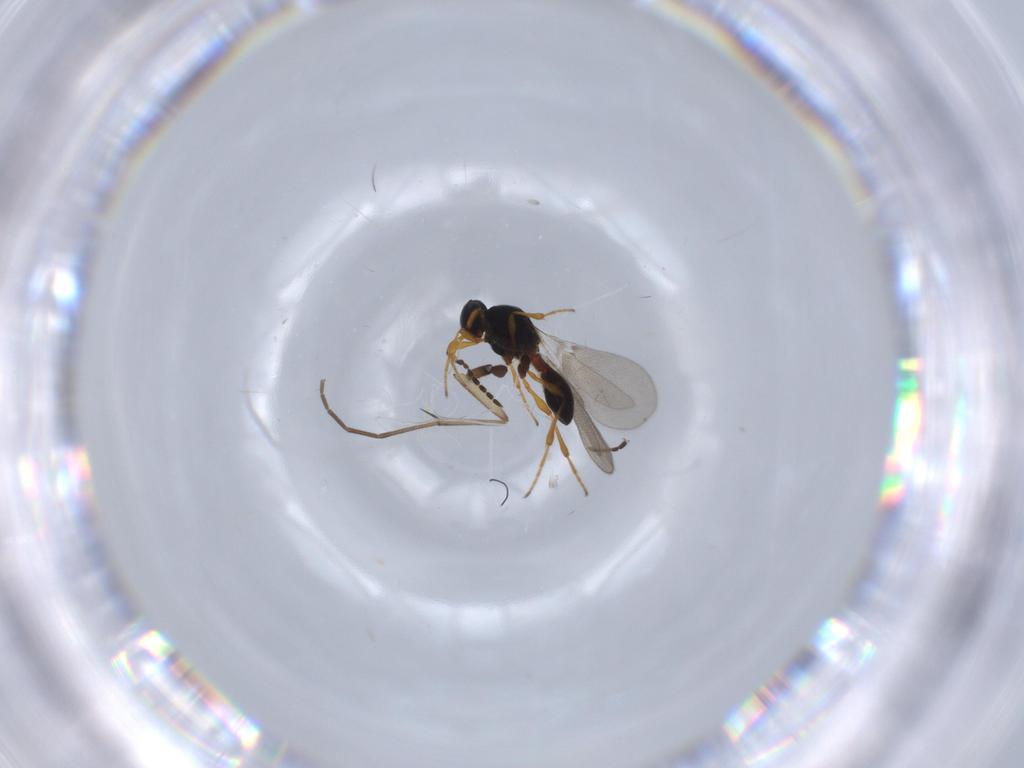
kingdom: Animalia
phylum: Arthropoda
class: Insecta
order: Hymenoptera
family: Platygastridae
